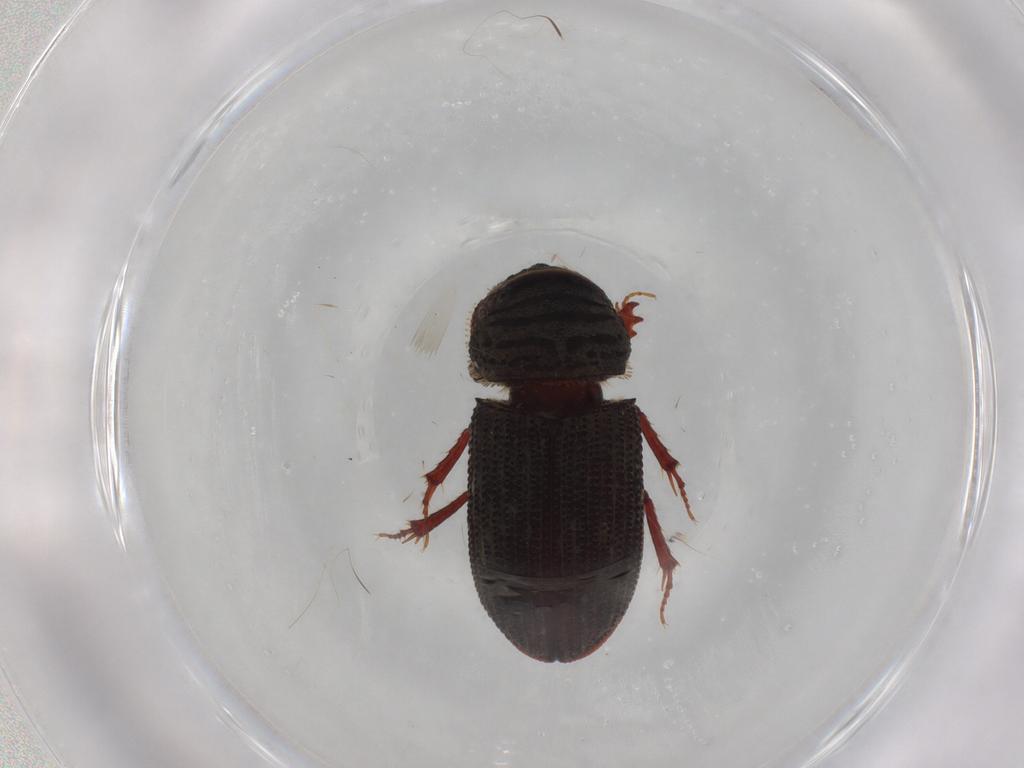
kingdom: Animalia
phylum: Arthropoda
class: Insecta
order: Coleoptera
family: Hydrophilidae
